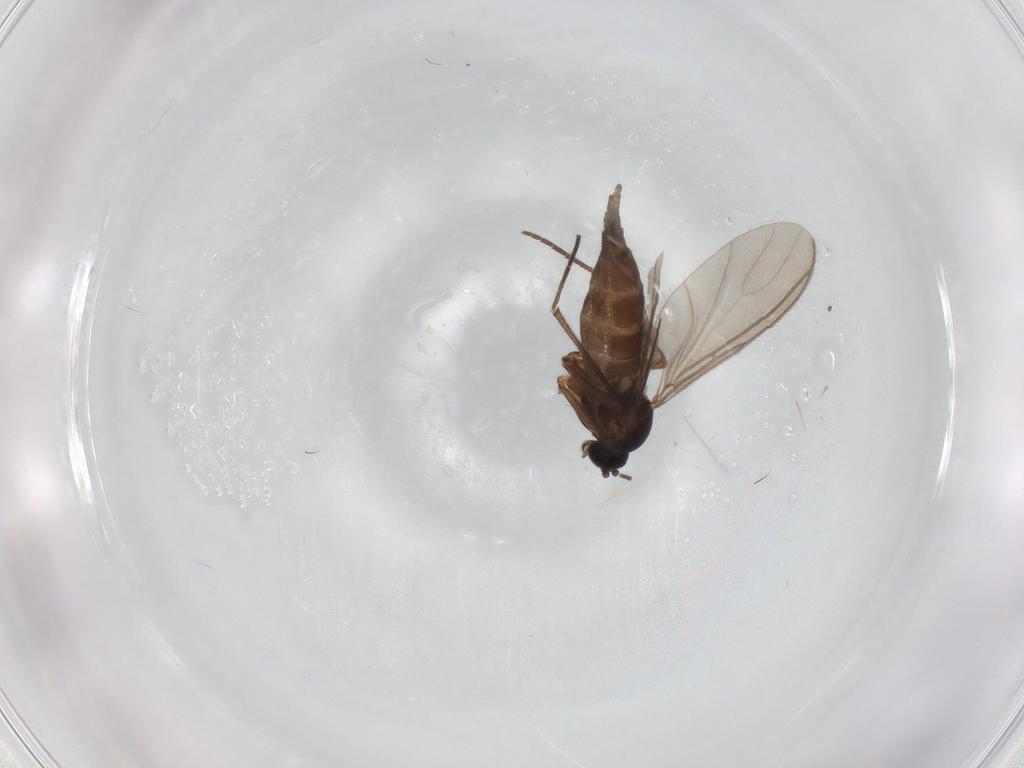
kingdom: Animalia
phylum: Arthropoda
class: Insecta
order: Diptera
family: Sciaridae
